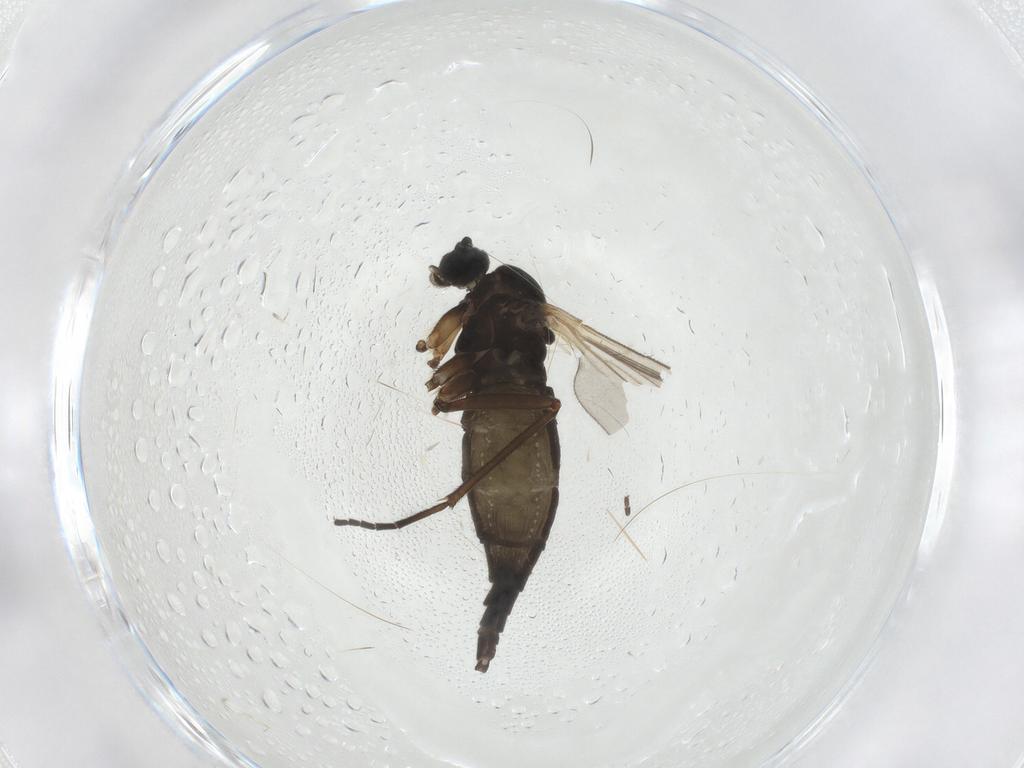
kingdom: Animalia
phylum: Arthropoda
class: Insecta
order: Diptera
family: Sciaridae
